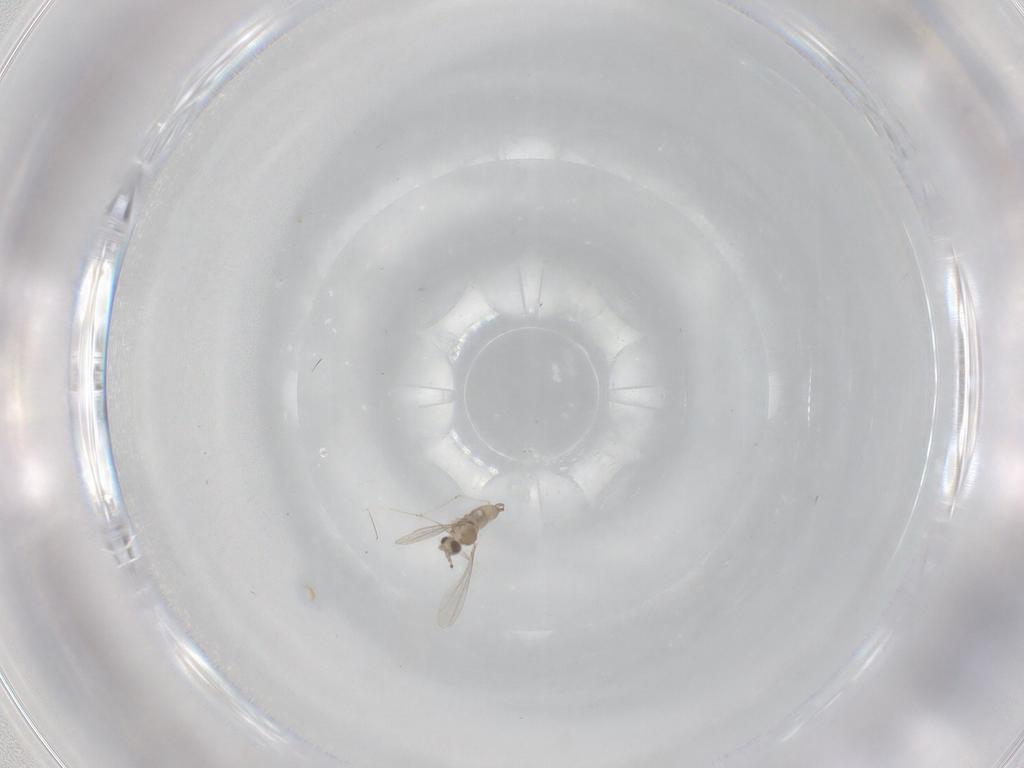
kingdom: Animalia
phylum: Arthropoda
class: Insecta
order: Diptera
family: Cecidomyiidae
